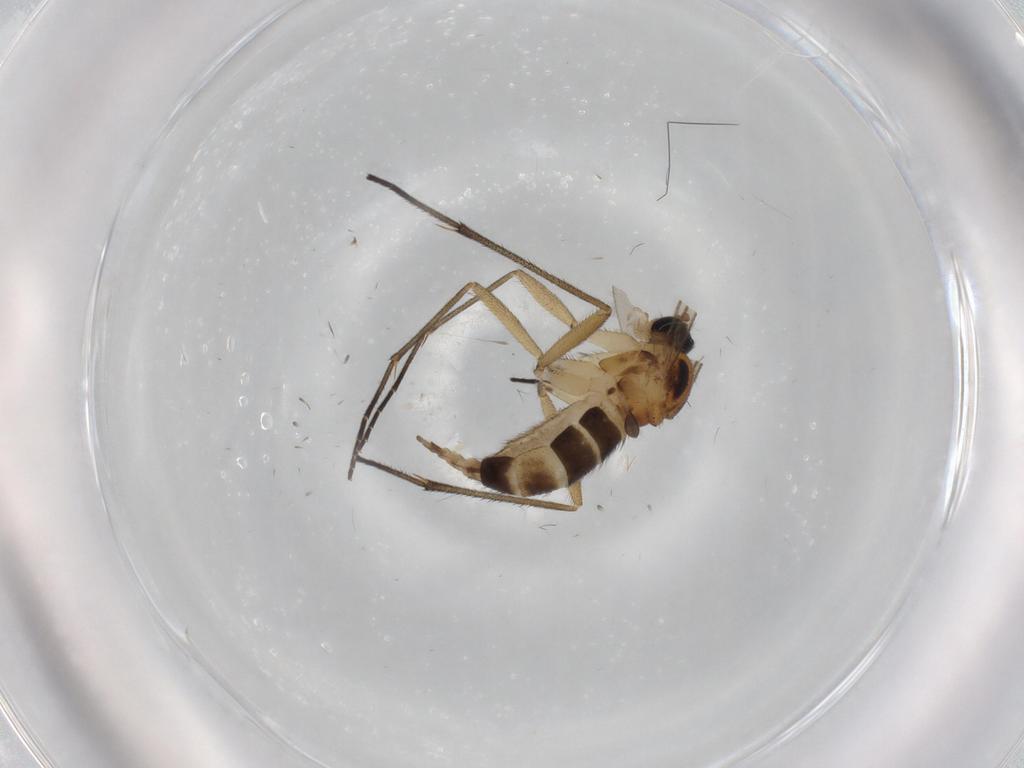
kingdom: Animalia
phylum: Arthropoda
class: Insecta
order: Diptera
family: Sciaridae
